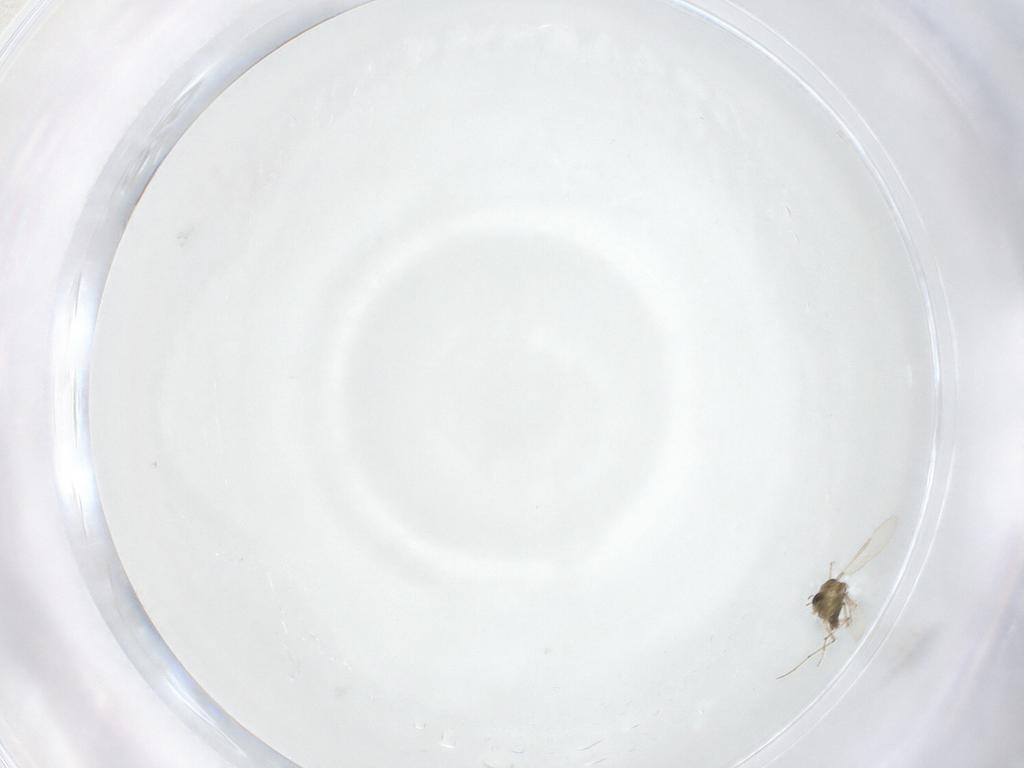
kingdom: Animalia
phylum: Arthropoda
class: Insecta
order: Diptera
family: Chironomidae
